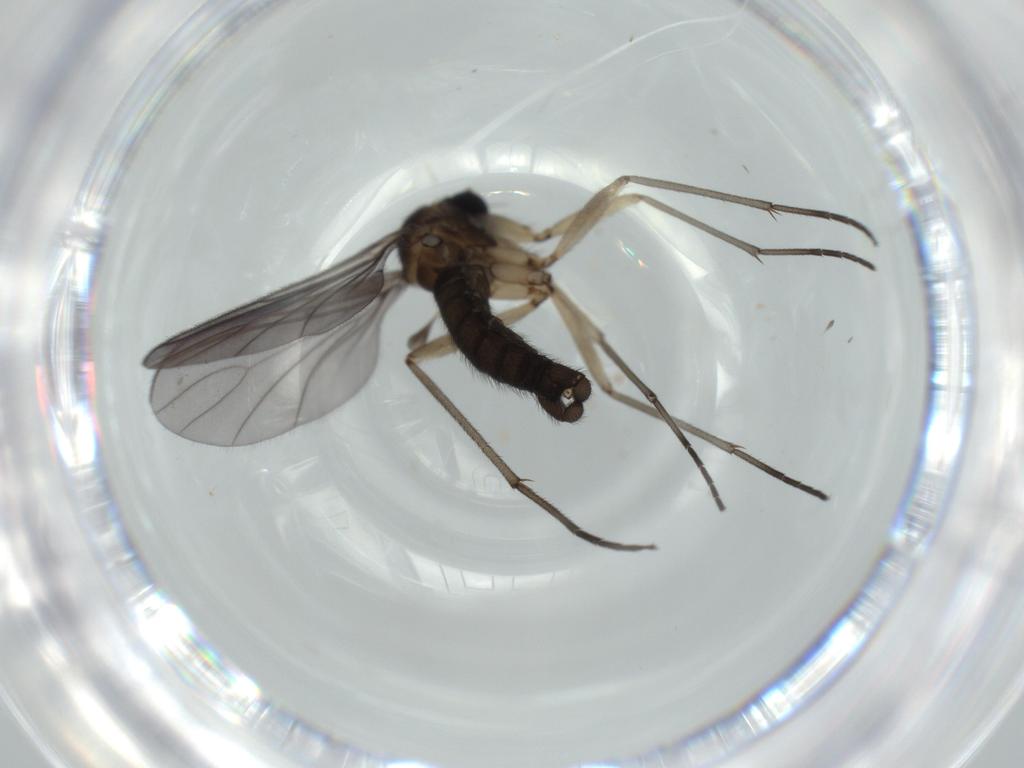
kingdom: Animalia
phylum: Arthropoda
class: Insecta
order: Diptera
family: Sciaridae
